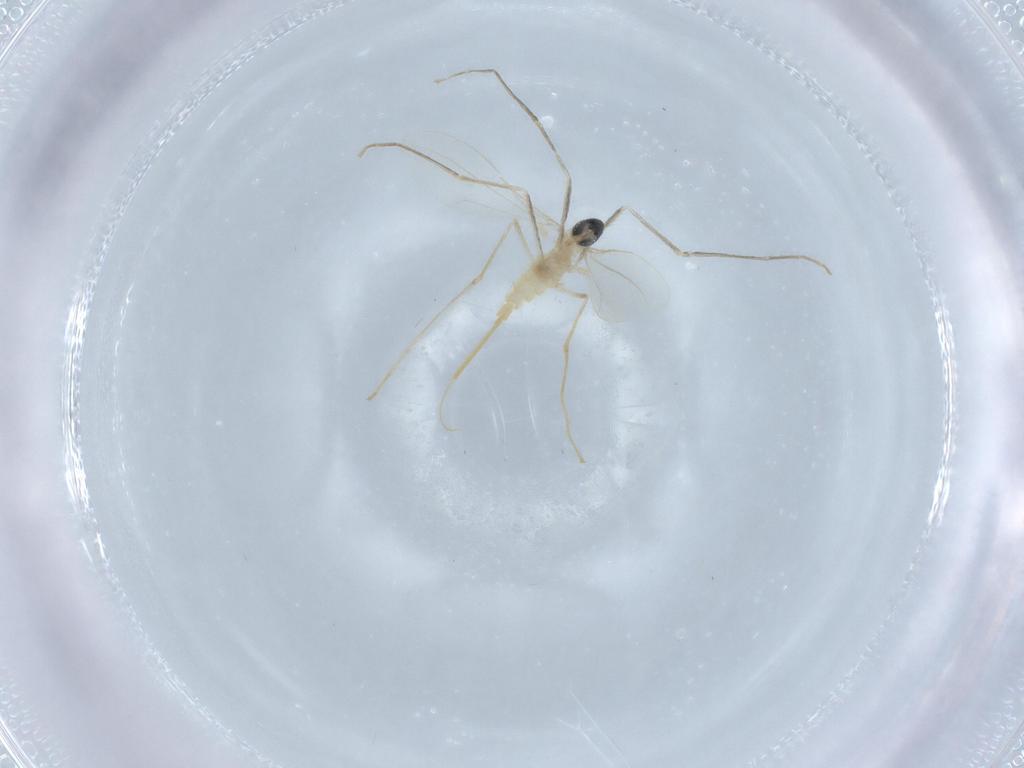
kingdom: Animalia
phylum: Arthropoda
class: Insecta
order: Diptera
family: Cecidomyiidae
